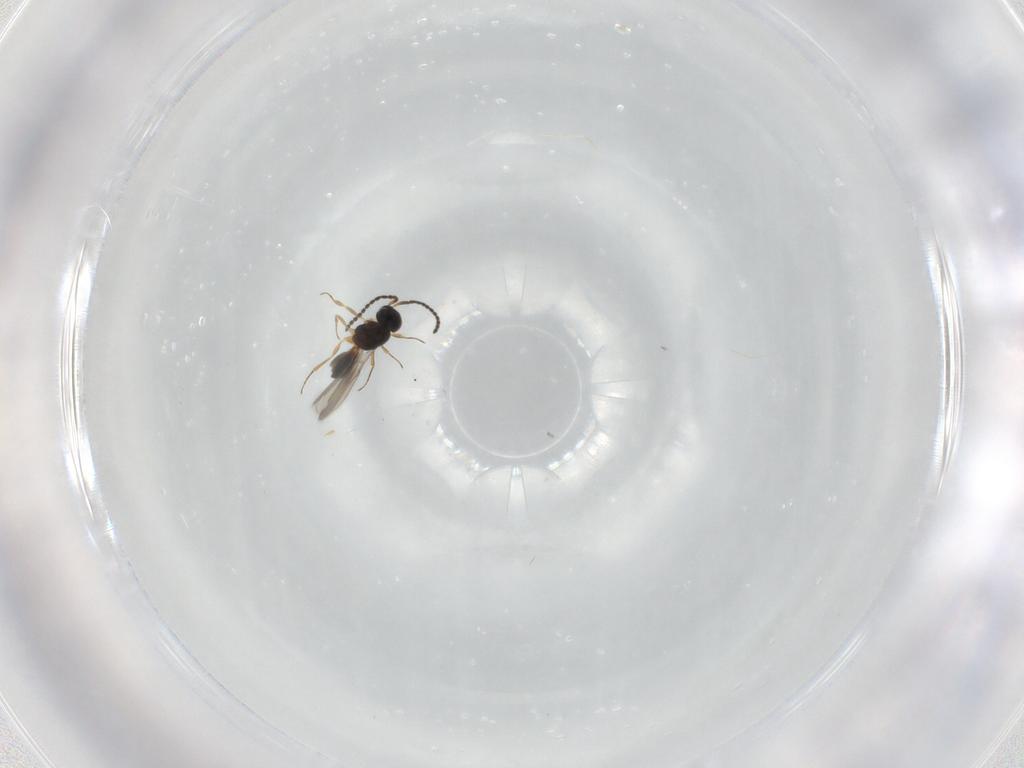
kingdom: Animalia
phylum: Arthropoda
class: Insecta
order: Hymenoptera
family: Scelionidae
